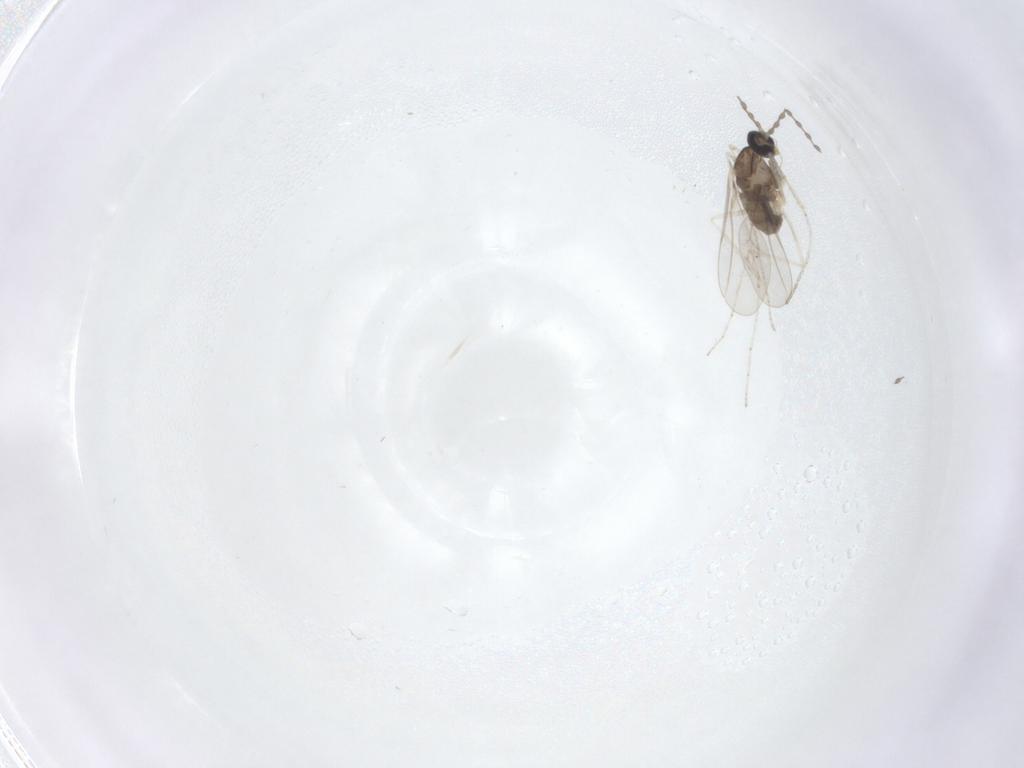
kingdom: Animalia
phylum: Arthropoda
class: Insecta
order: Diptera
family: Cecidomyiidae
